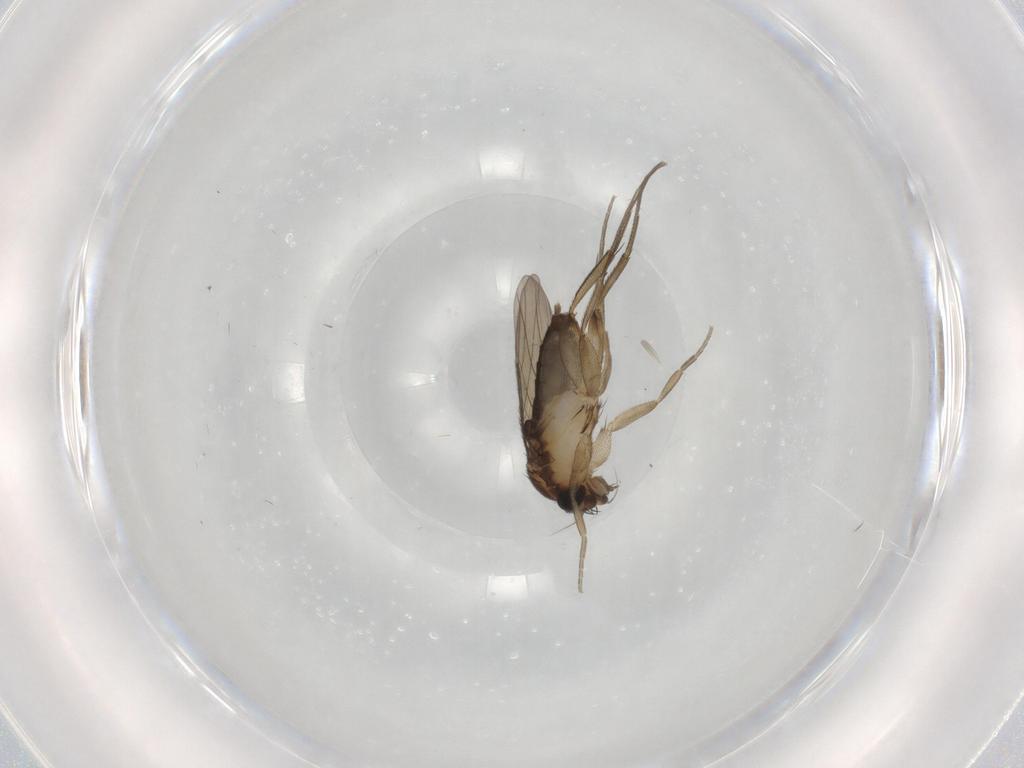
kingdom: Animalia
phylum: Arthropoda
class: Insecta
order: Diptera
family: Phoridae
